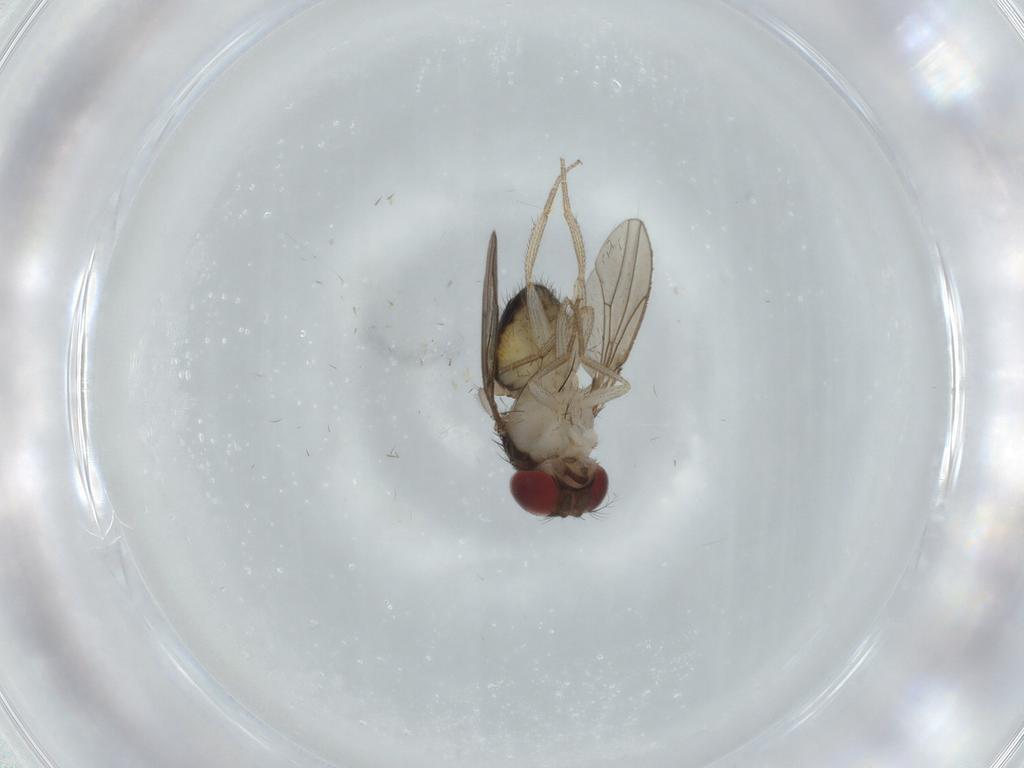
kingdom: Animalia
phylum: Arthropoda
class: Insecta
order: Diptera
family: Drosophilidae
